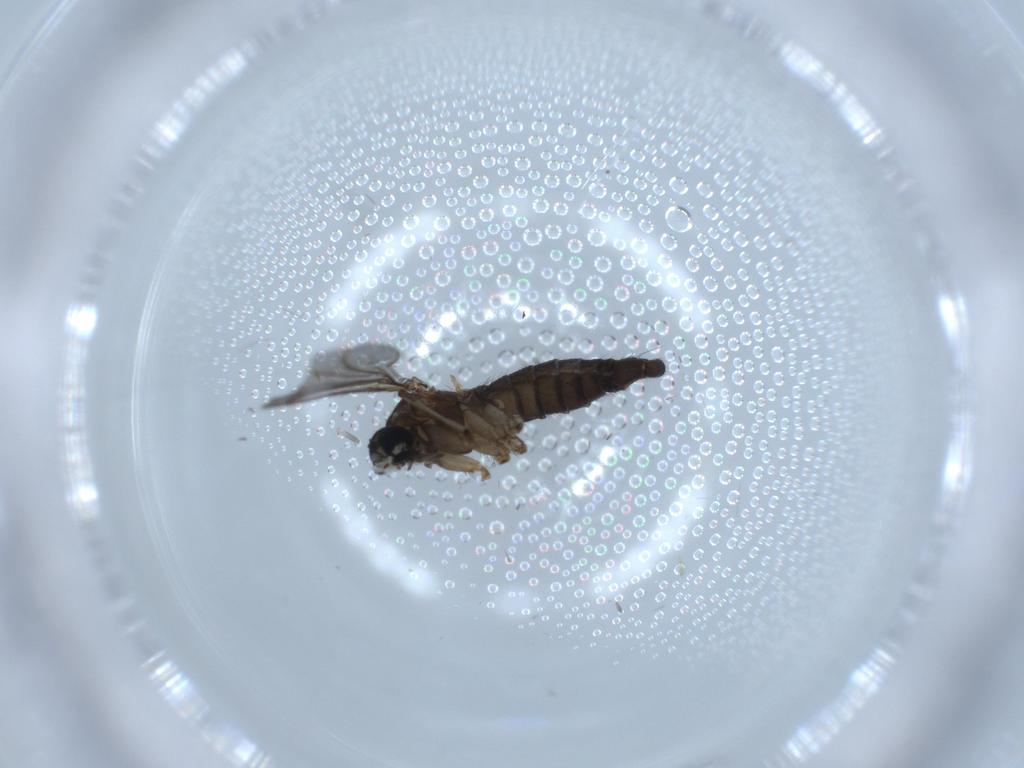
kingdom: Animalia
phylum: Arthropoda
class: Insecta
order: Diptera
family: Sciaridae
